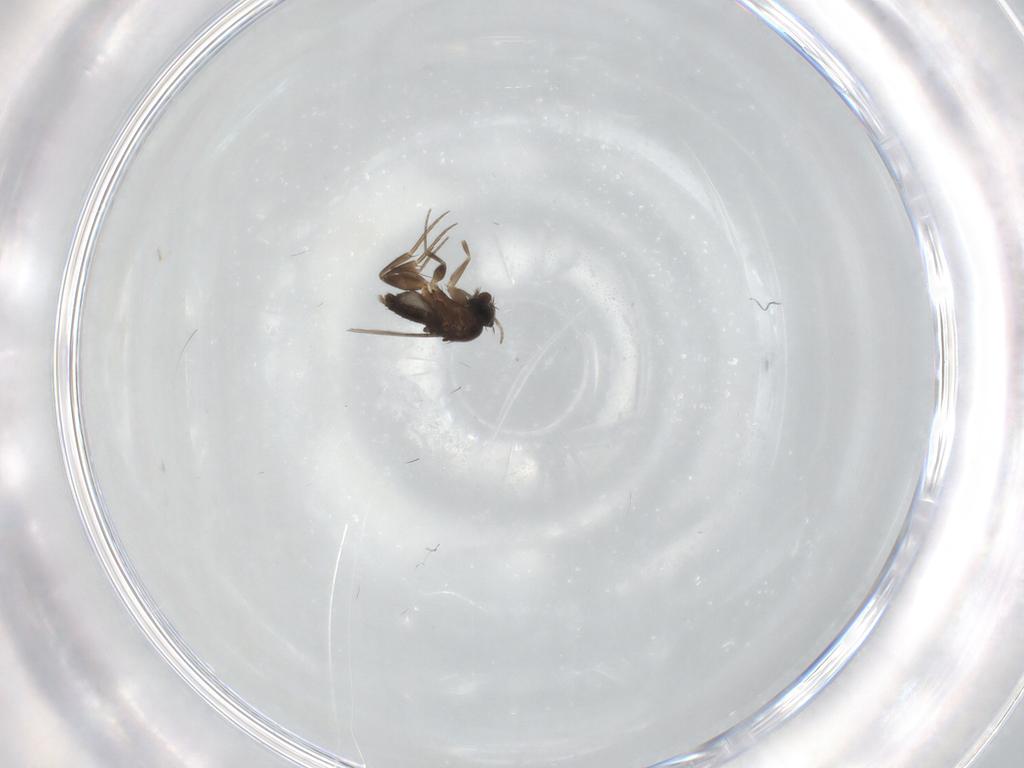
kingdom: Animalia
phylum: Arthropoda
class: Insecta
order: Diptera
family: Phoridae
